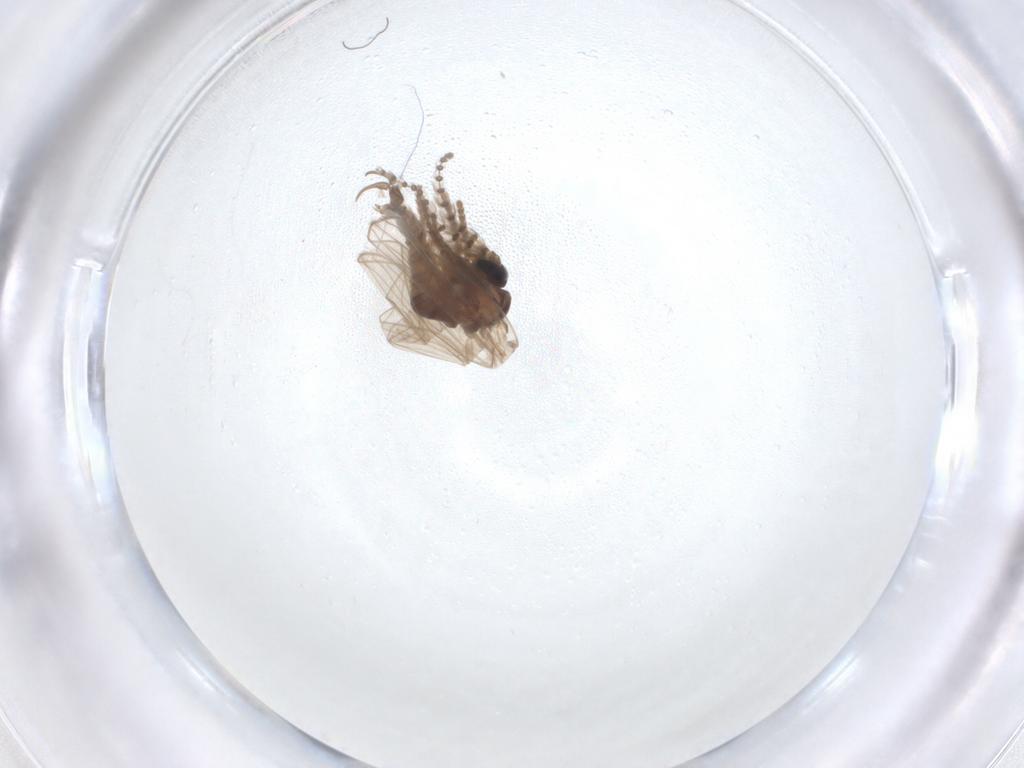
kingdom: Animalia
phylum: Arthropoda
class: Insecta
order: Diptera
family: Psychodidae
